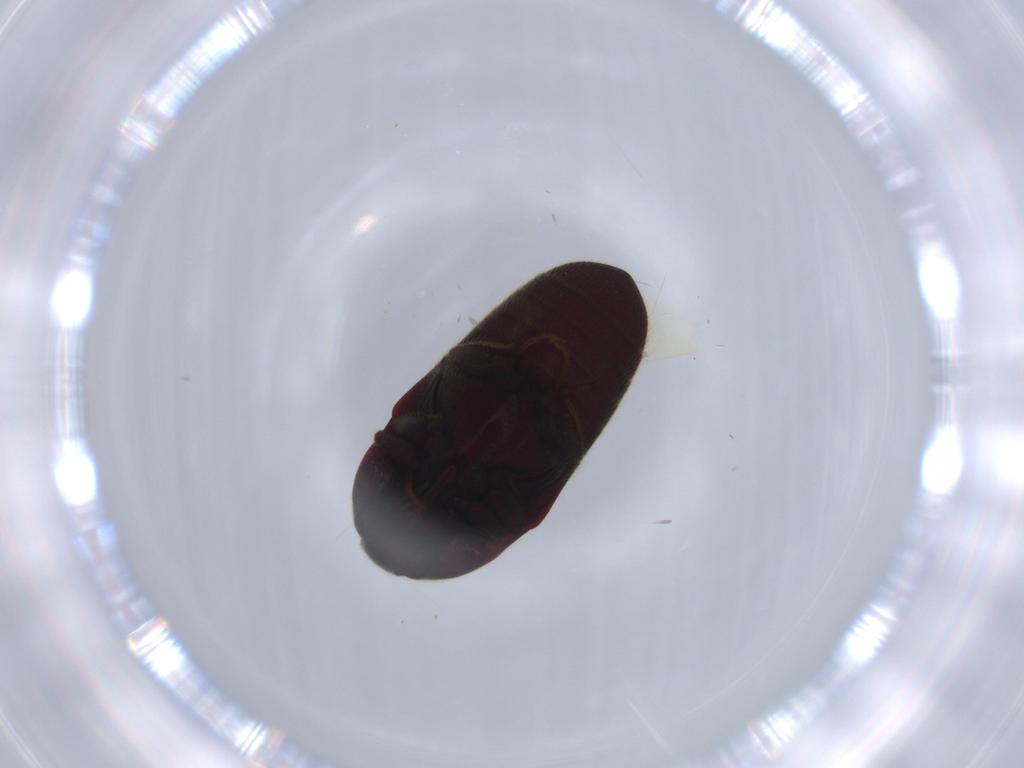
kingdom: Animalia
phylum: Arthropoda
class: Insecta
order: Coleoptera
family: Throscidae
